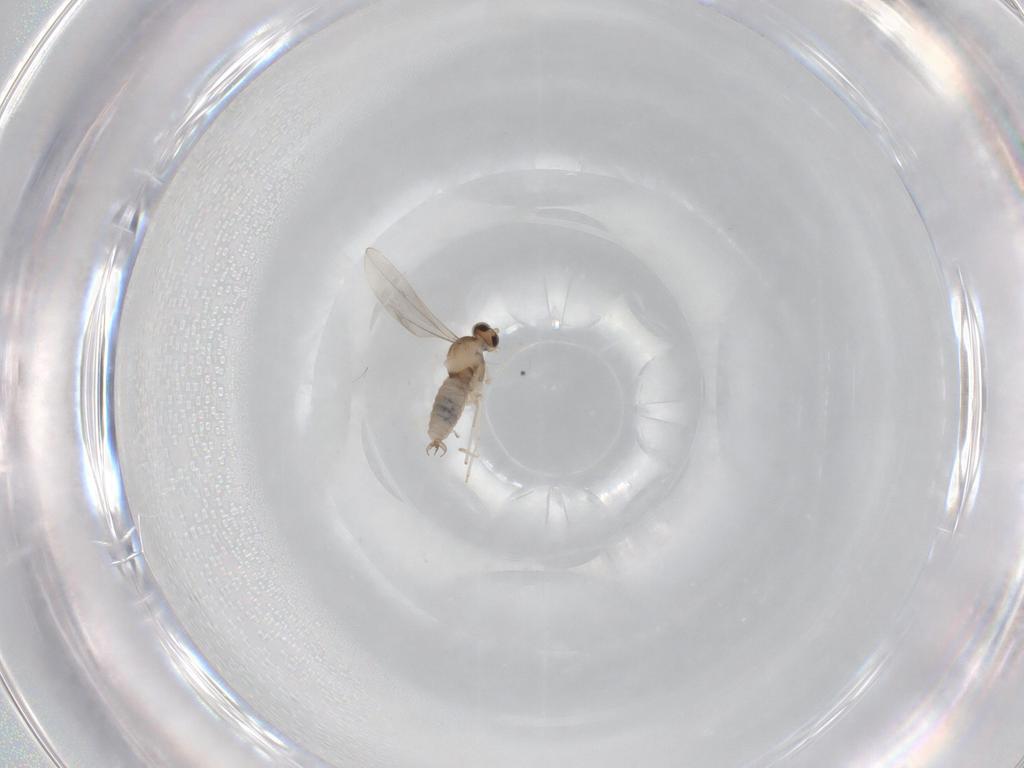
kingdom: Animalia
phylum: Arthropoda
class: Insecta
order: Diptera
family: Cecidomyiidae
